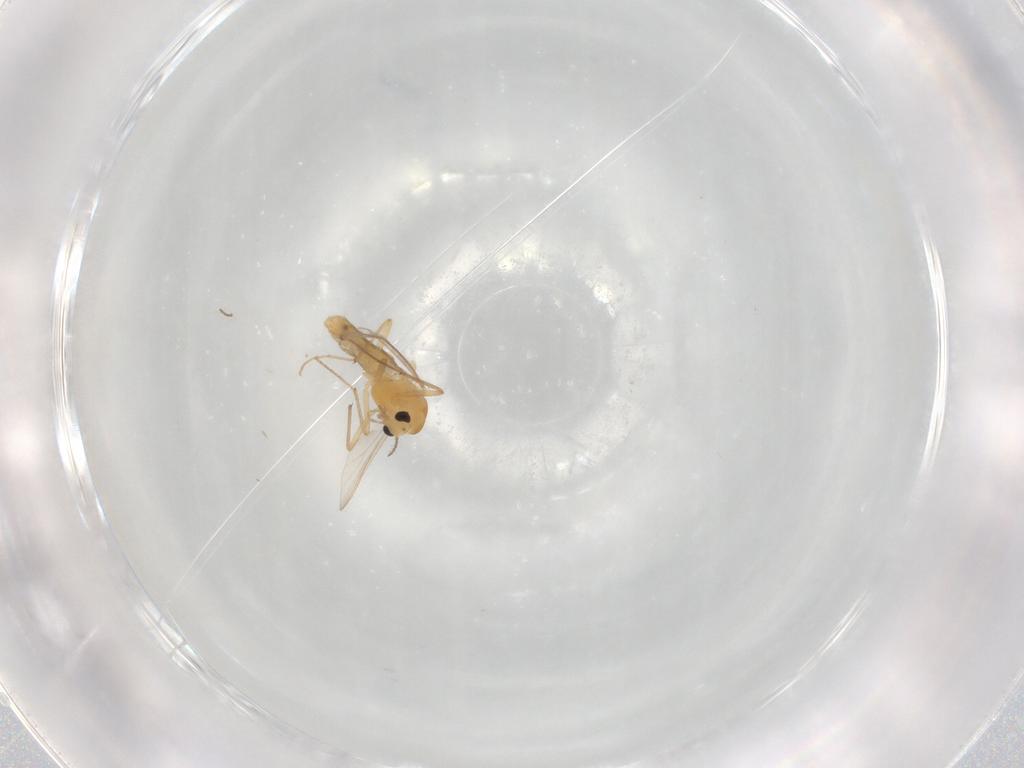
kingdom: Animalia
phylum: Arthropoda
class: Insecta
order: Diptera
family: Chironomidae
